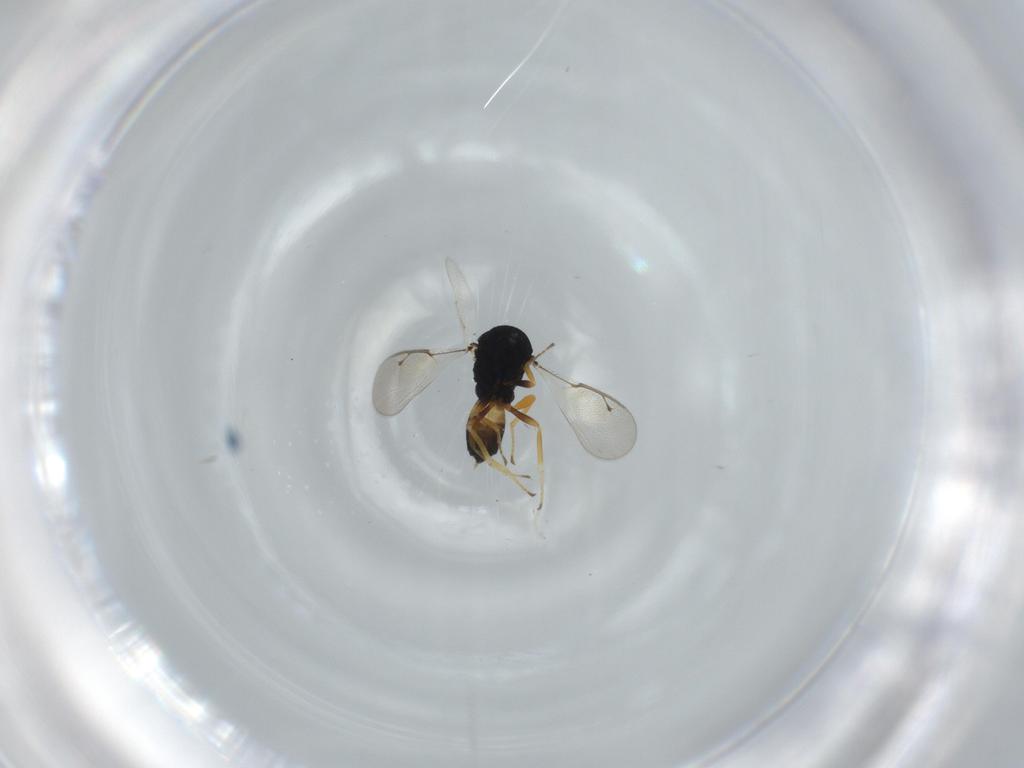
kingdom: Animalia
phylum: Arthropoda
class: Insecta
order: Hymenoptera
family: Pteromalidae
